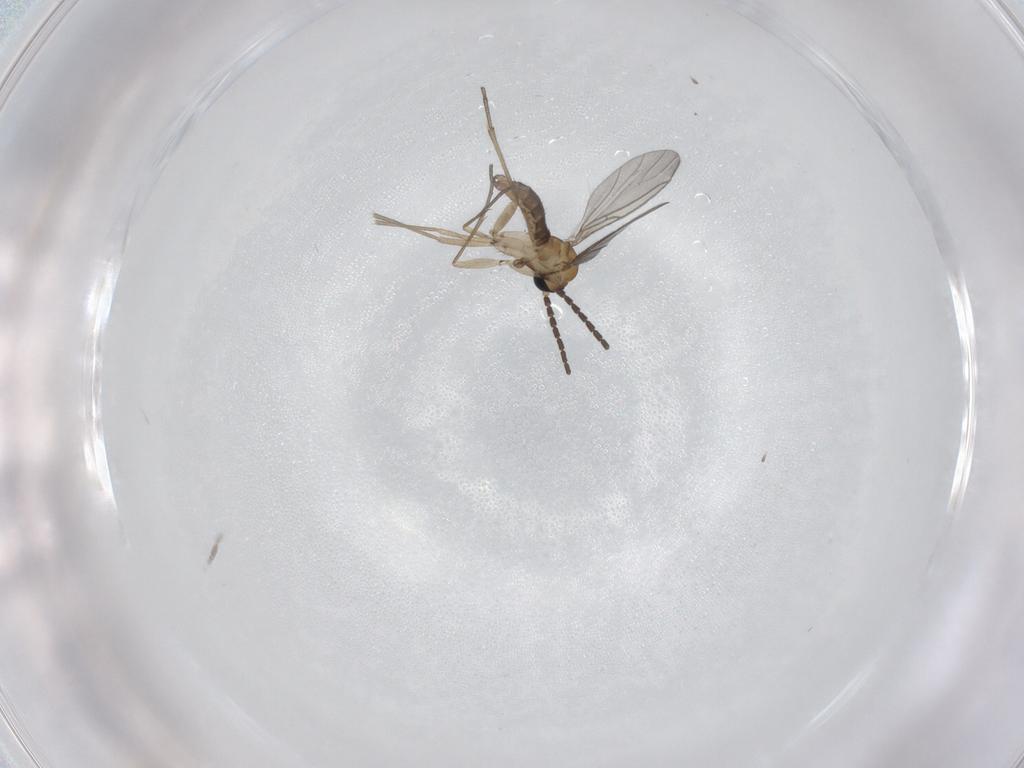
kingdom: Animalia
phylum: Arthropoda
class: Insecta
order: Diptera
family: Sciaridae
